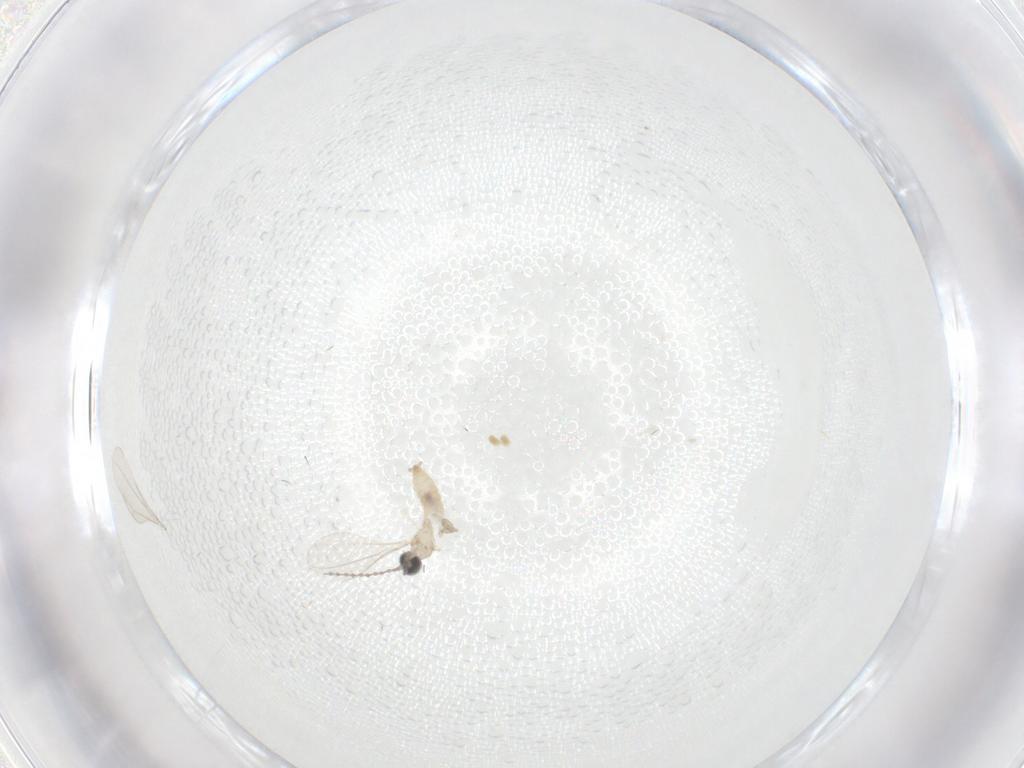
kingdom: Animalia
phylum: Arthropoda
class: Insecta
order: Diptera
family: Cecidomyiidae
